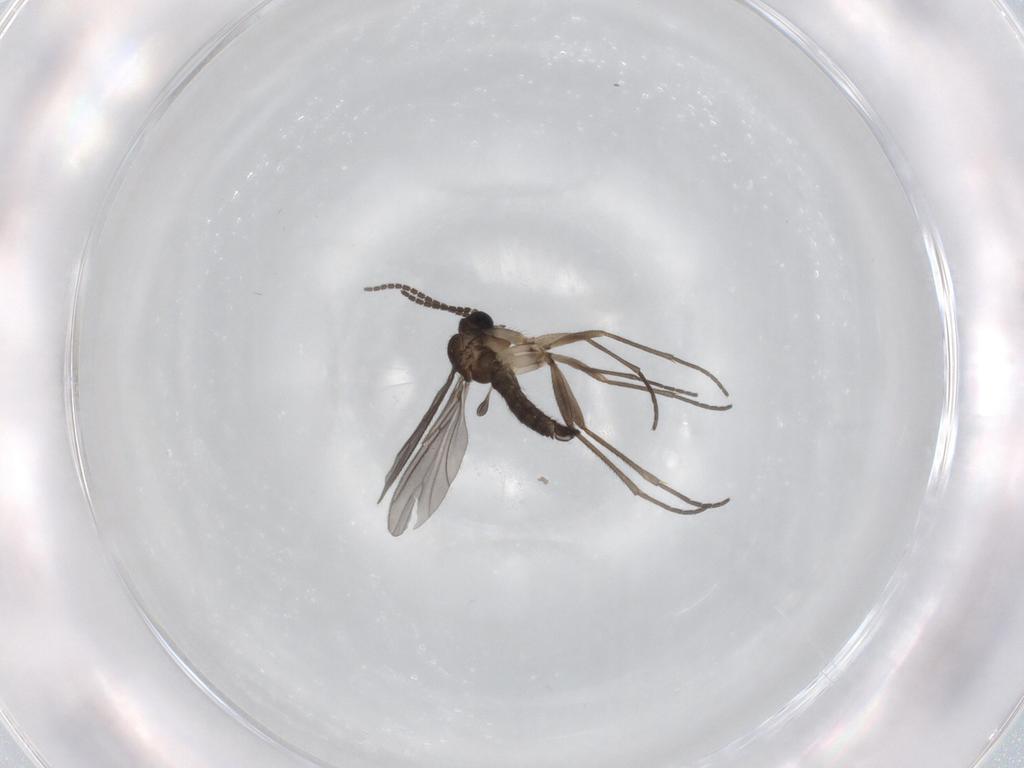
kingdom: Animalia
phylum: Arthropoda
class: Insecta
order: Diptera
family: Sciaridae
